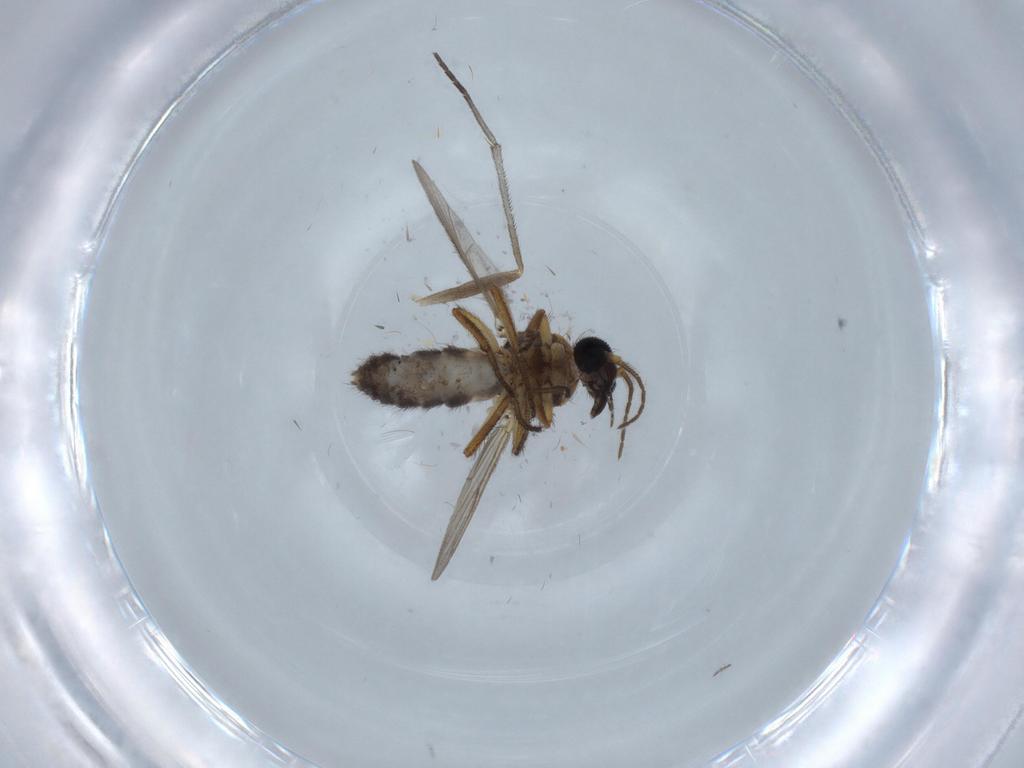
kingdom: Animalia
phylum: Arthropoda
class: Insecta
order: Diptera
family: Ceratopogonidae
